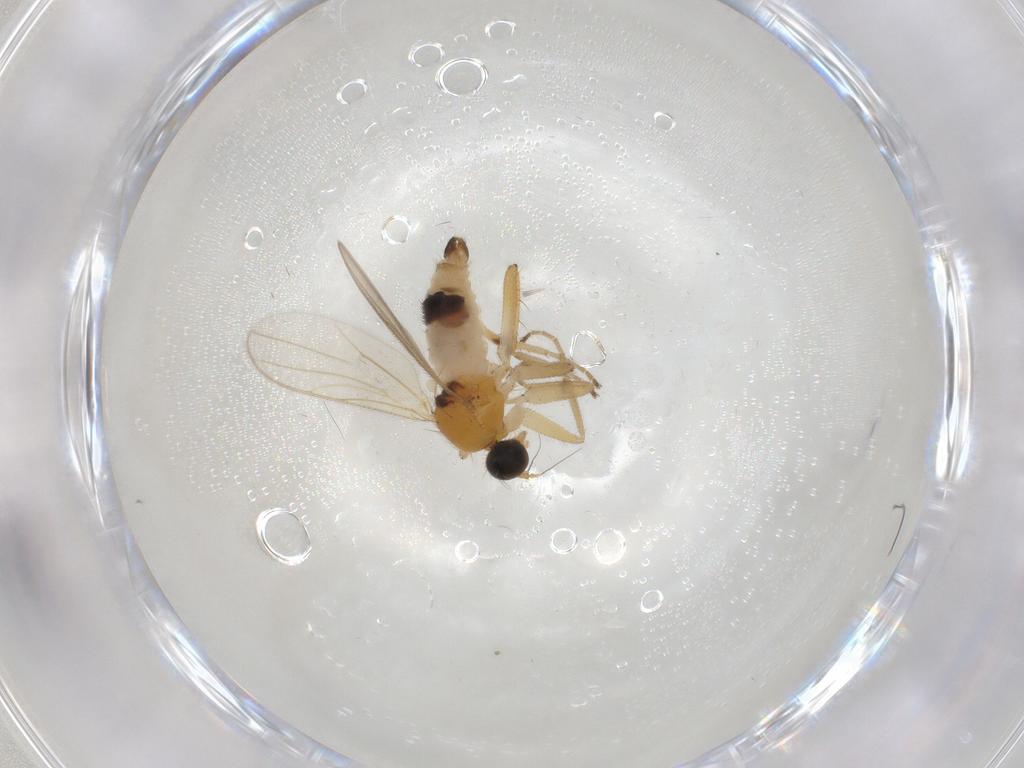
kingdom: Animalia
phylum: Arthropoda
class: Insecta
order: Diptera
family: Hybotidae
